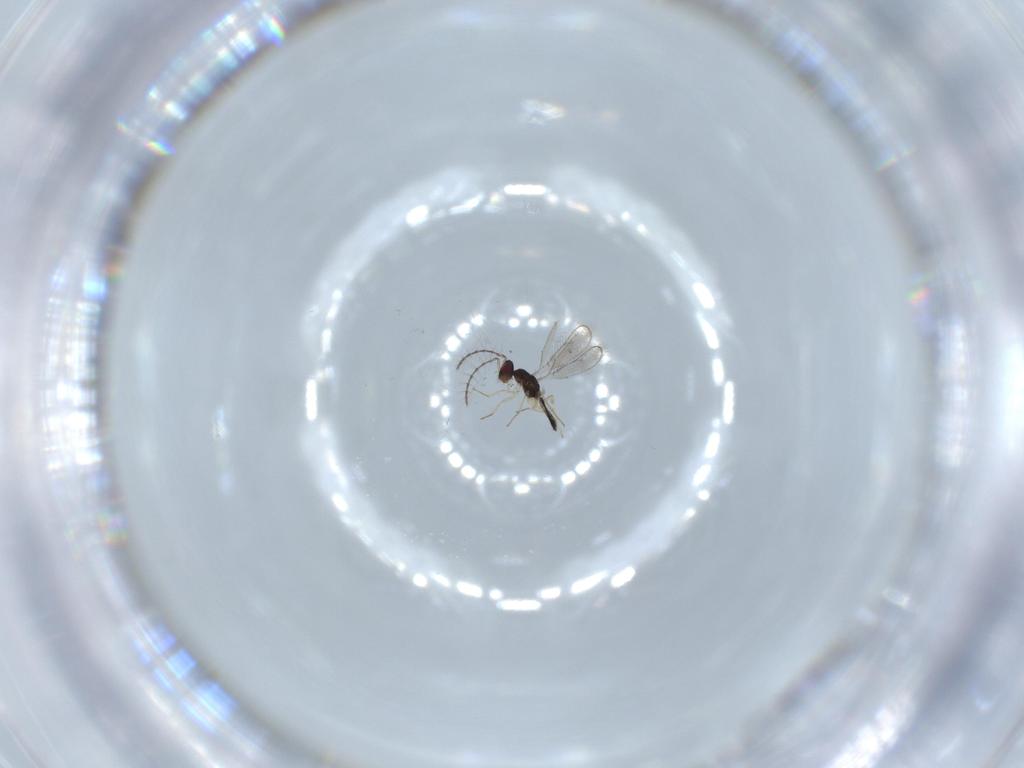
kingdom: Animalia
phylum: Arthropoda
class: Insecta
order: Hymenoptera
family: Pteromalidae
